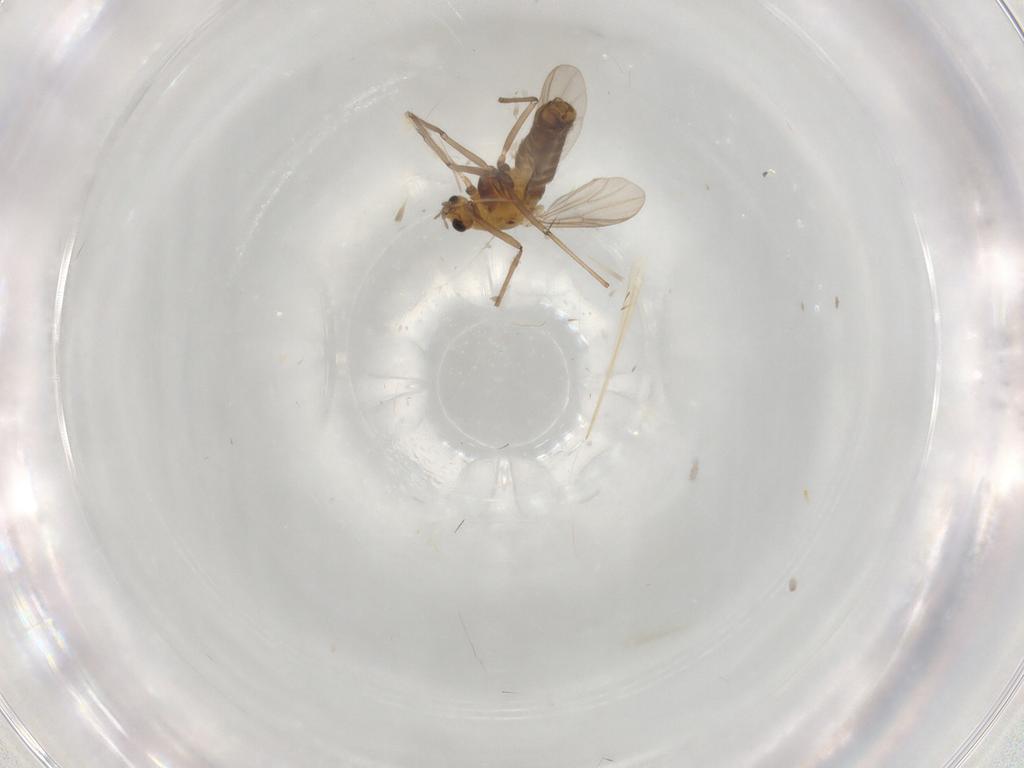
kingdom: Animalia
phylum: Arthropoda
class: Insecta
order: Diptera
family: Chironomidae
